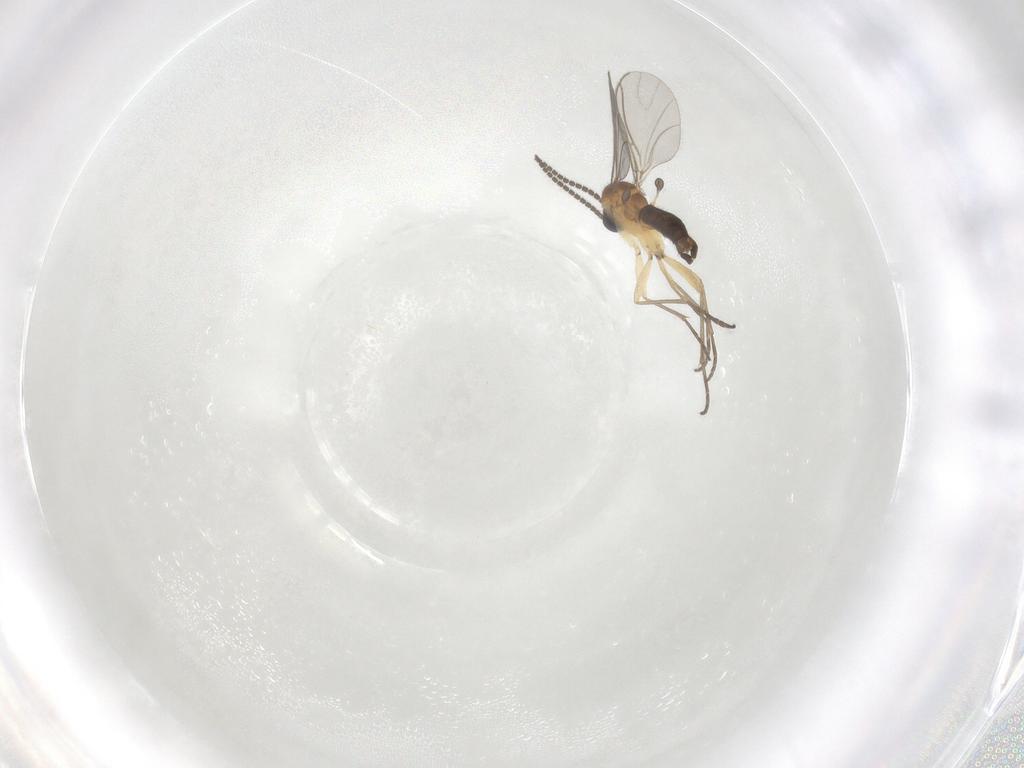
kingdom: Animalia
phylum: Arthropoda
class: Insecta
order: Diptera
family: Sciaridae
